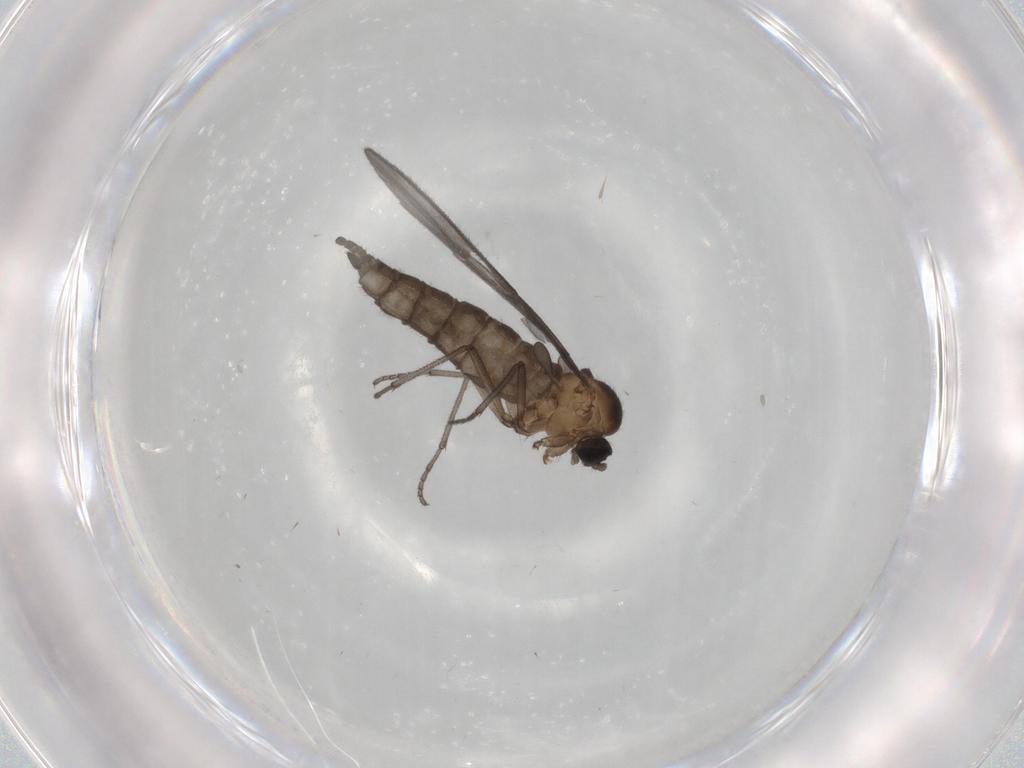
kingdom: Animalia
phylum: Arthropoda
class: Insecta
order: Diptera
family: Sciaridae
